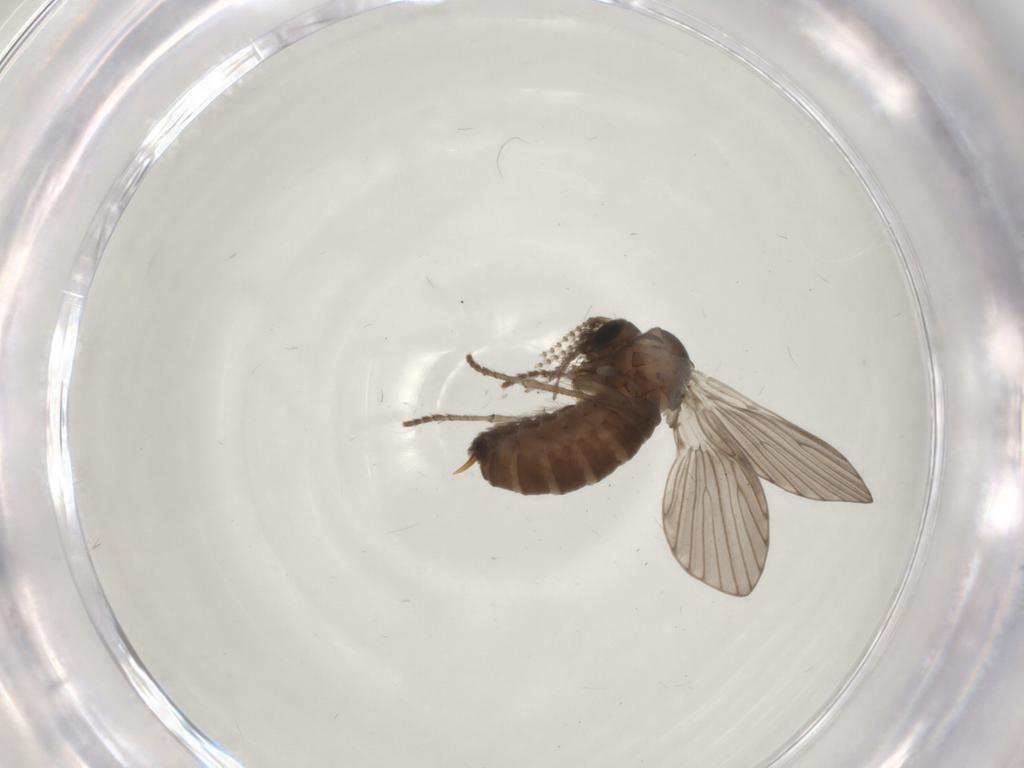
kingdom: Animalia
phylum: Arthropoda
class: Insecta
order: Diptera
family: Psychodidae
